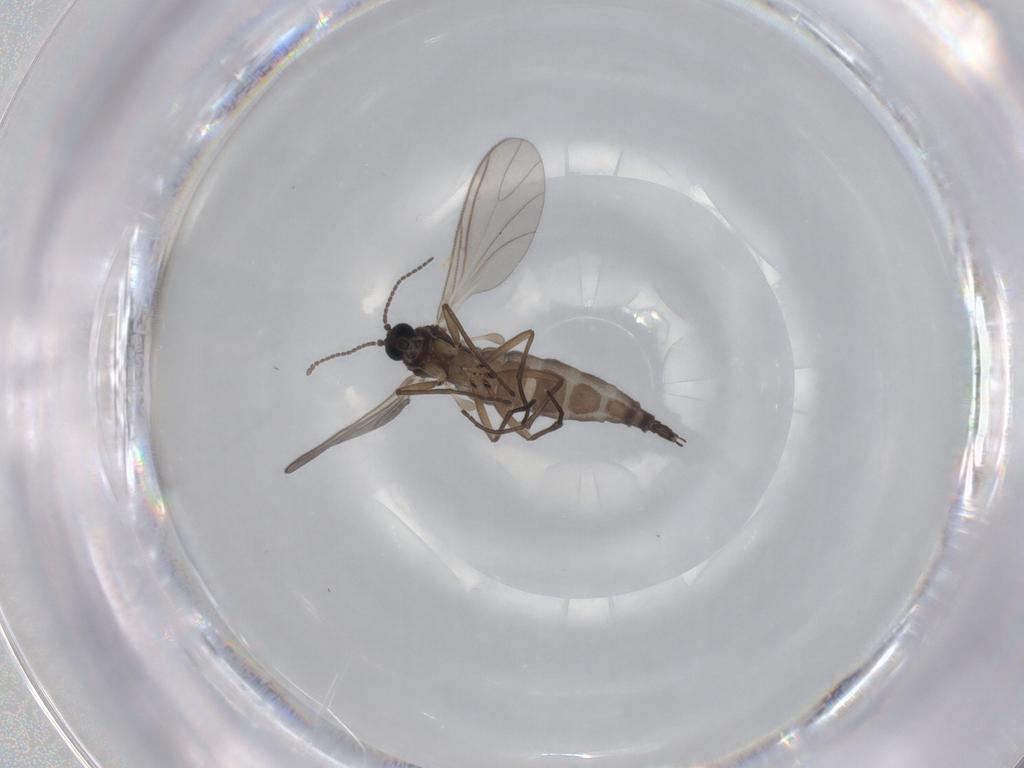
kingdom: Animalia
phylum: Arthropoda
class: Insecta
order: Diptera
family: Sciaridae
